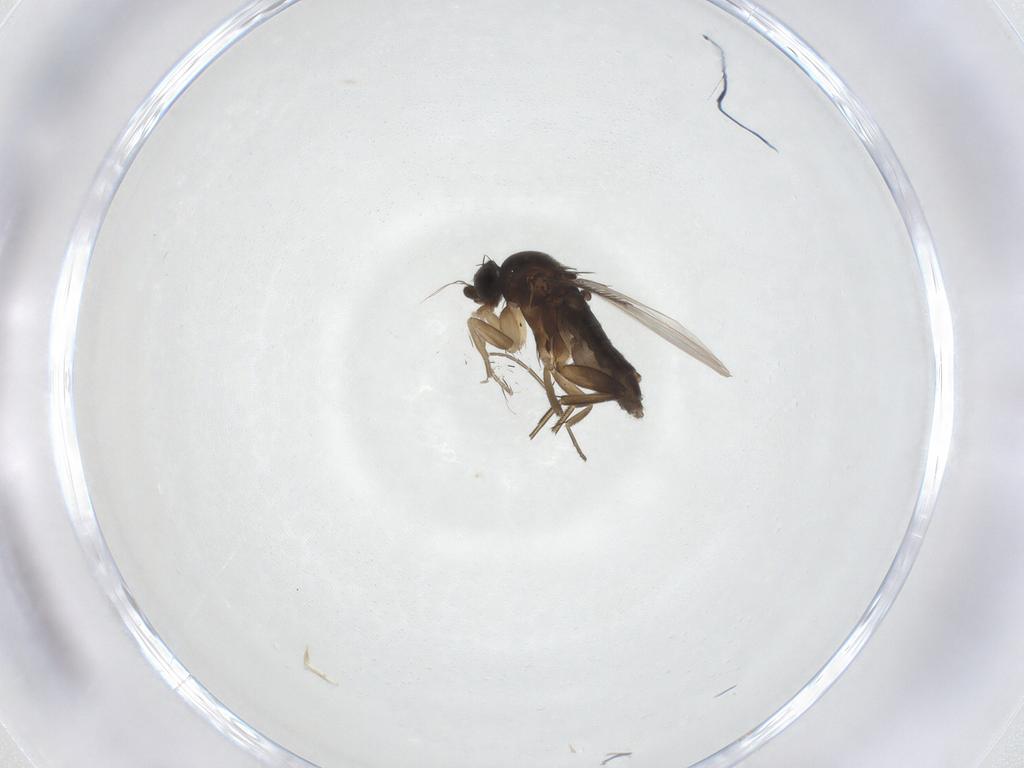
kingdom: Animalia
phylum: Arthropoda
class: Insecta
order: Diptera
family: Phoridae
